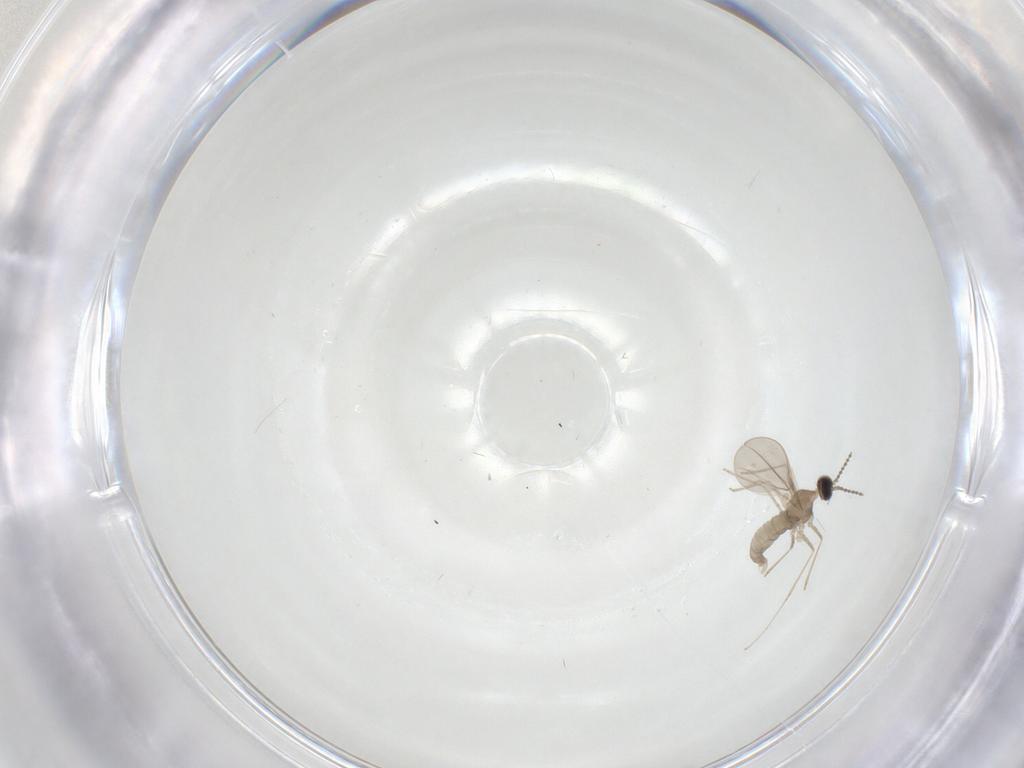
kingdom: Animalia
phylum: Arthropoda
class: Insecta
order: Diptera
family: Cecidomyiidae
